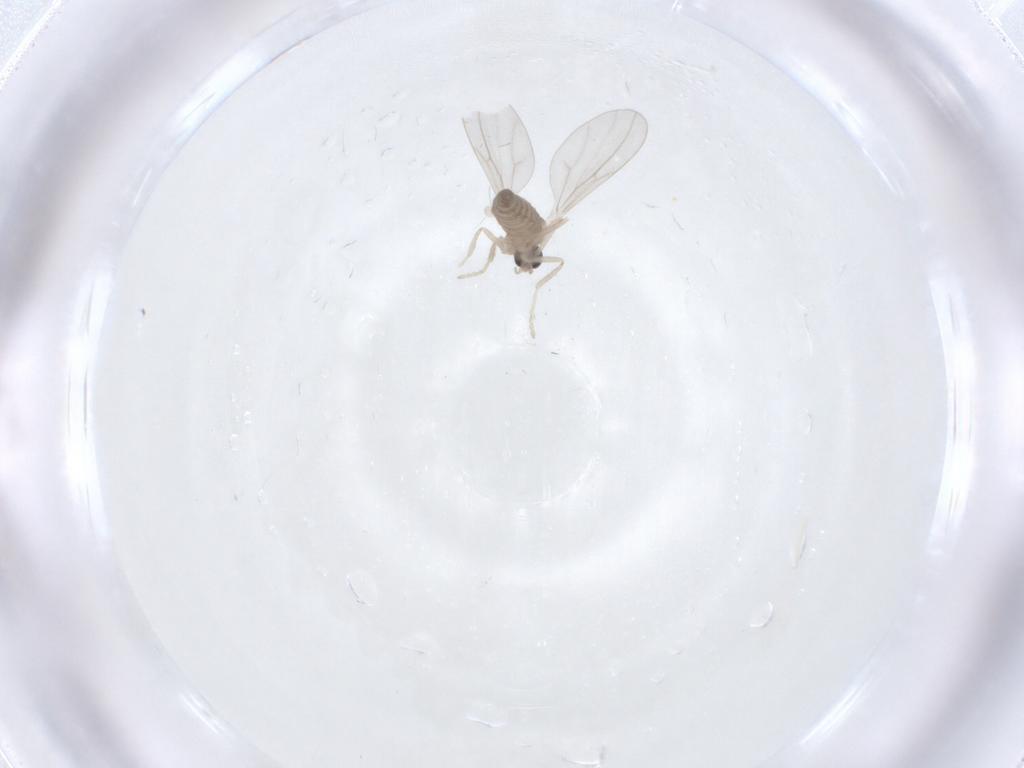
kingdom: Animalia
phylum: Arthropoda
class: Insecta
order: Diptera
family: Cecidomyiidae
